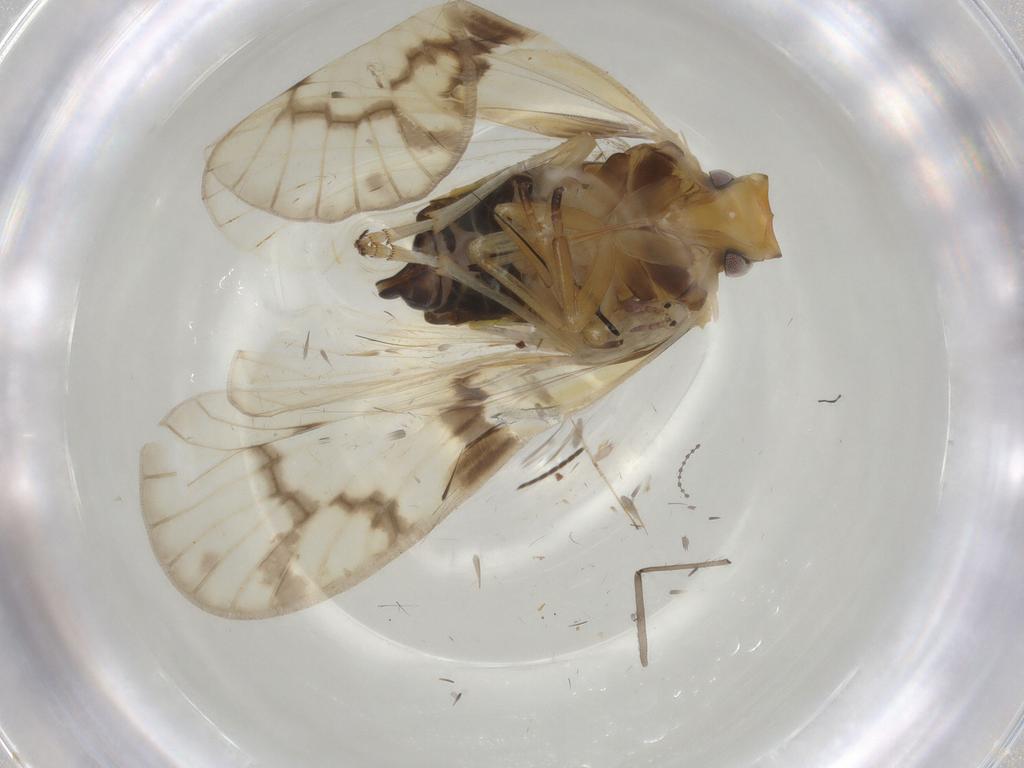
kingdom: Animalia
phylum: Arthropoda
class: Insecta
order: Hemiptera
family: Cixiidae
